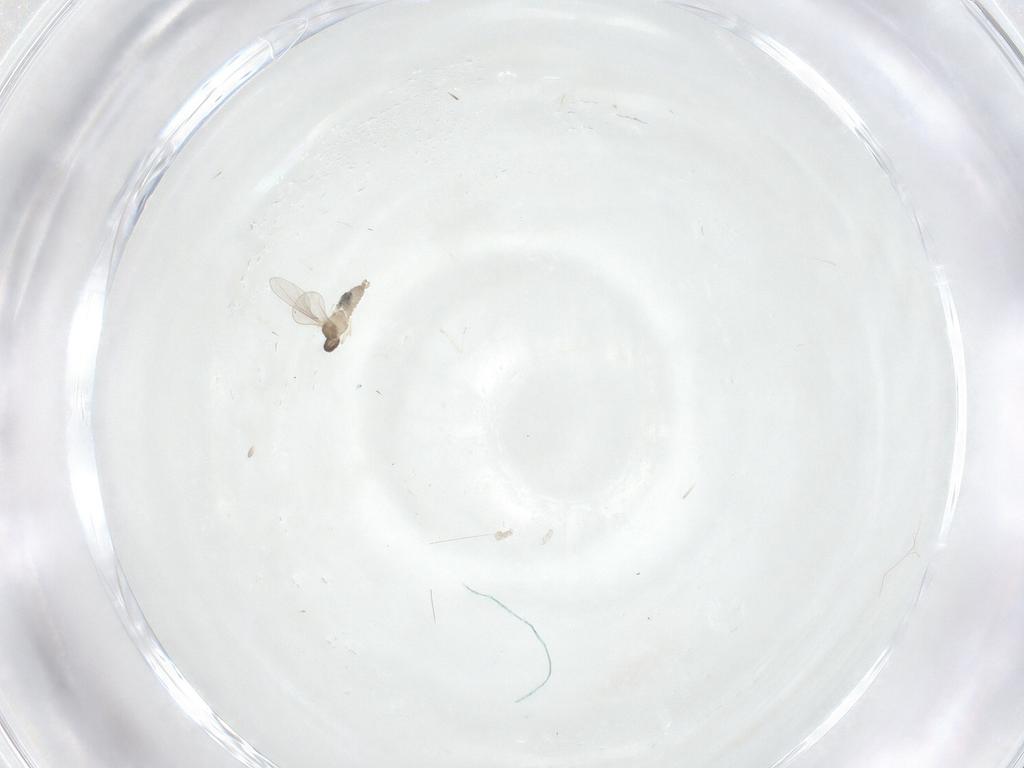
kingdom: Animalia
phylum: Arthropoda
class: Insecta
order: Diptera
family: Cecidomyiidae
